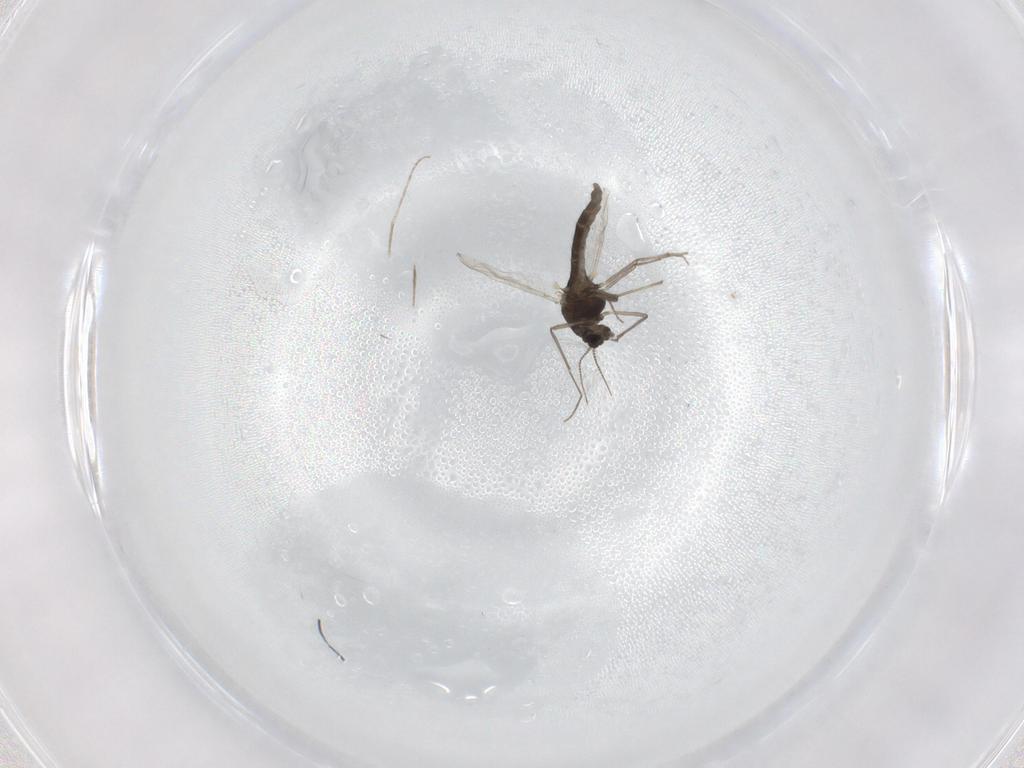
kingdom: Animalia
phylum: Arthropoda
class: Insecta
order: Diptera
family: Chironomidae
